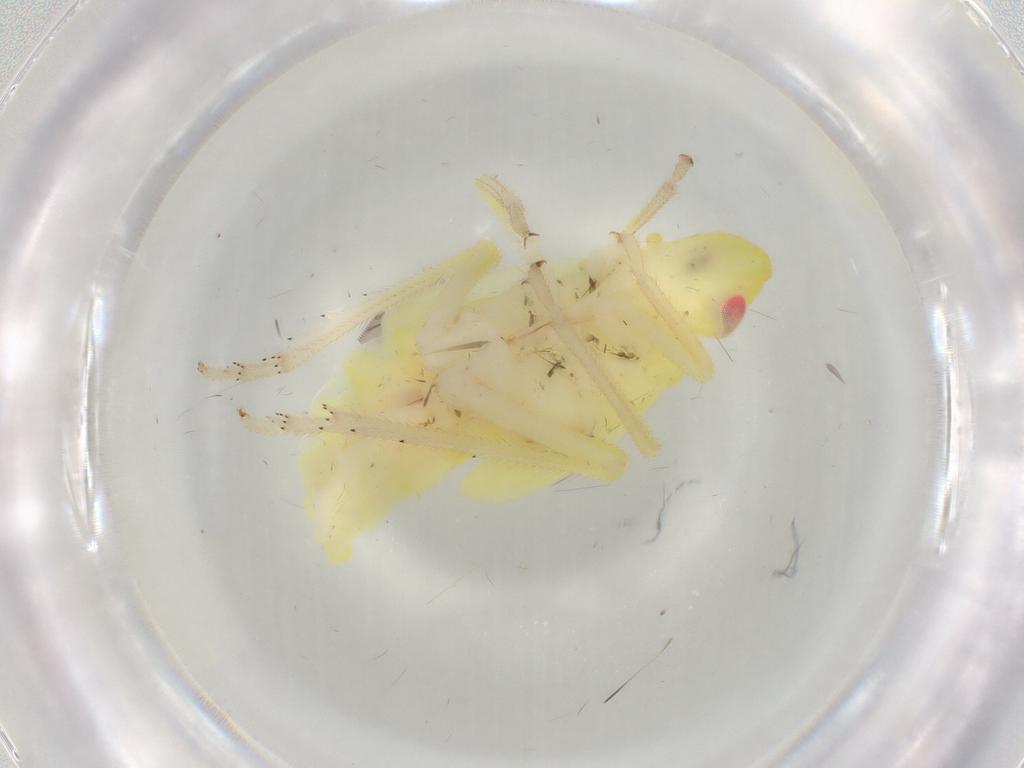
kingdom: Animalia
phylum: Arthropoda
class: Insecta
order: Hemiptera
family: Tropiduchidae
